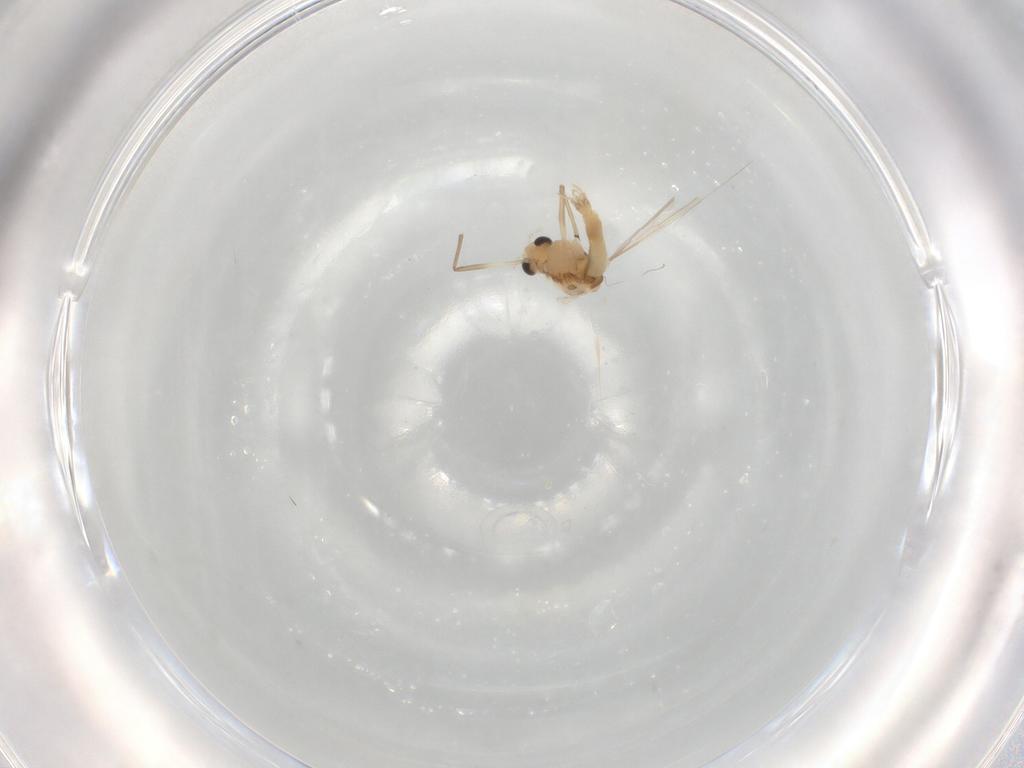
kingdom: Animalia
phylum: Arthropoda
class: Insecta
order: Diptera
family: Chironomidae
